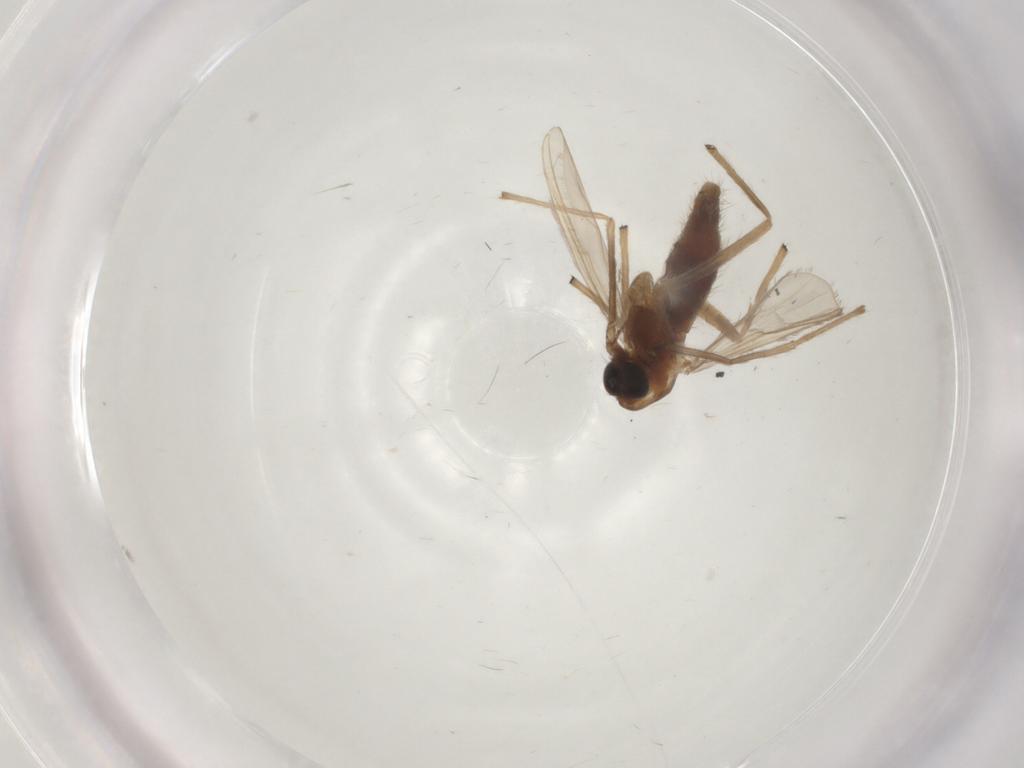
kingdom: Animalia
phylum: Arthropoda
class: Insecta
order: Diptera
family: Chironomidae
